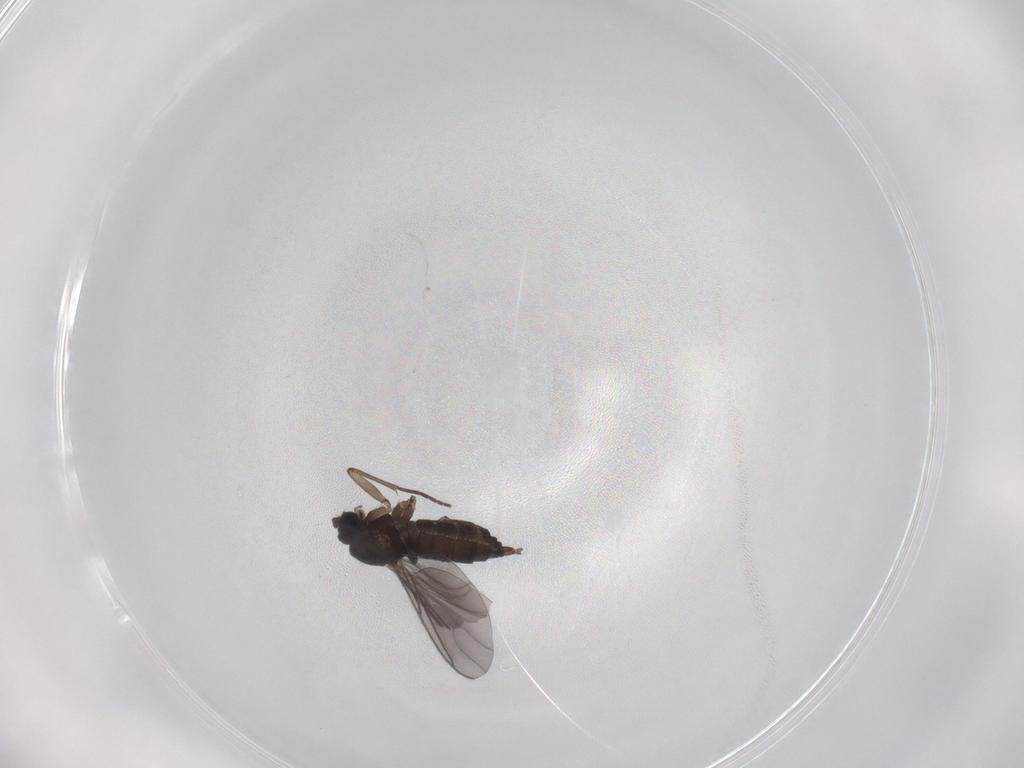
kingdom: Animalia
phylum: Arthropoda
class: Insecta
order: Diptera
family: Sciaridae
